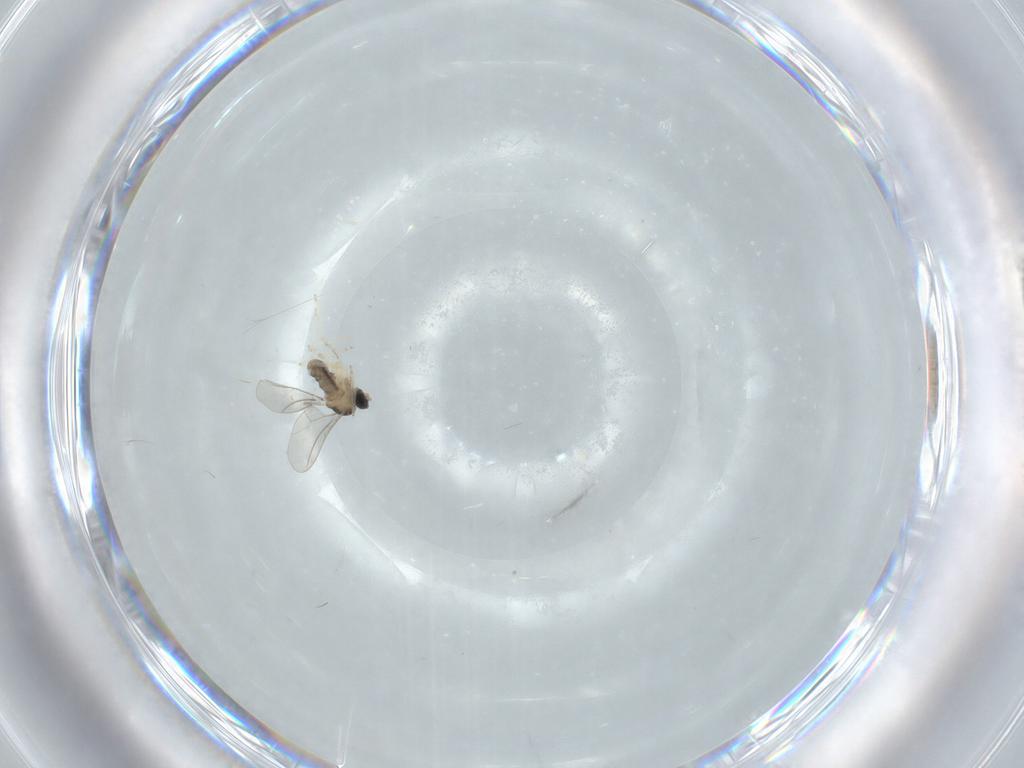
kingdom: Animalia
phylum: Arthropoda
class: Insecta
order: Diptera
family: Cecidomyiidae
